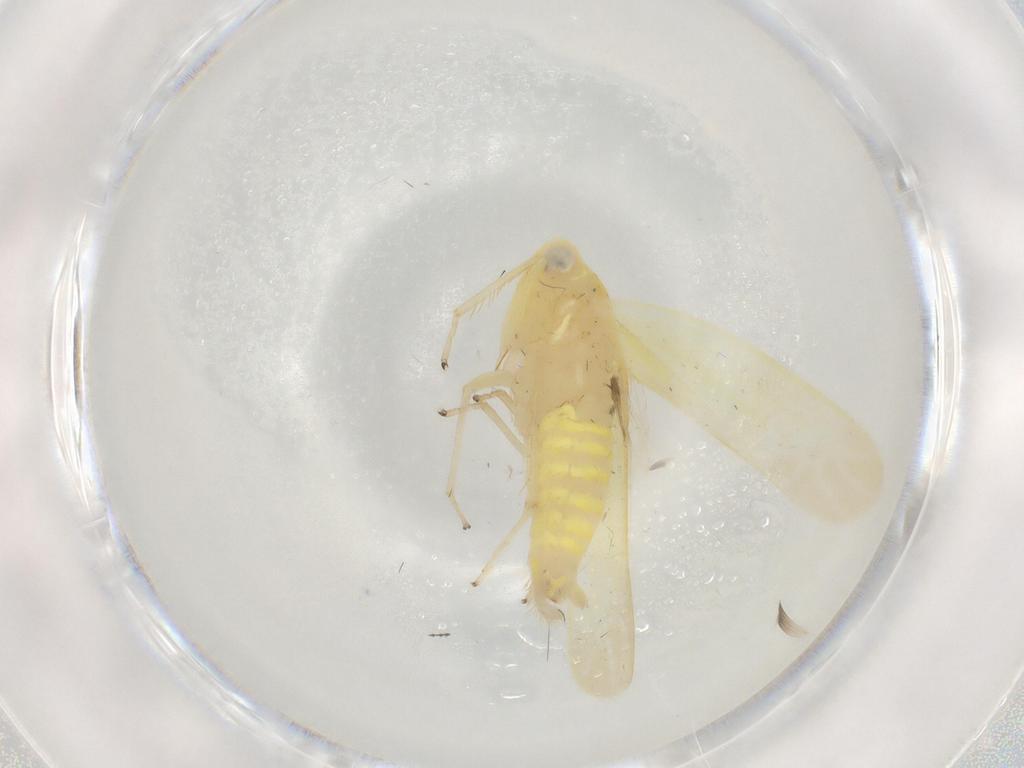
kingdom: Animalia
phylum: Arthropoda
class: Insecta
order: Hemiptera
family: Cicadellidae
